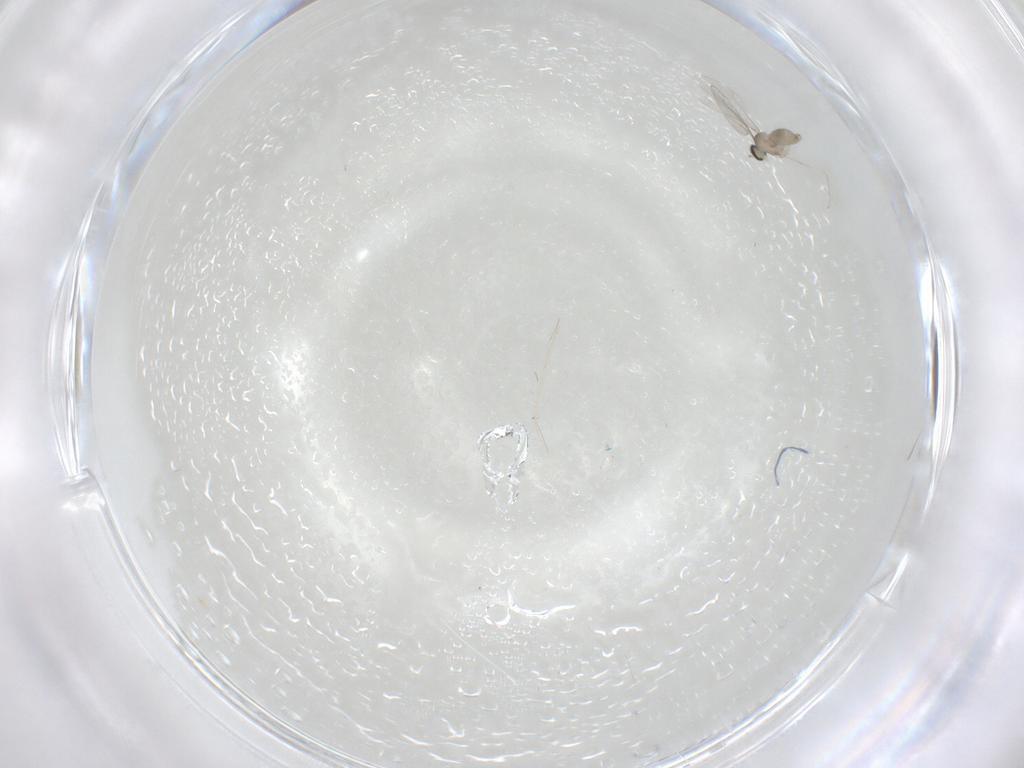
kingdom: Animalia
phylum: Arthropoda
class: Insecta
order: Diptera
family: Cecidomyiidae
